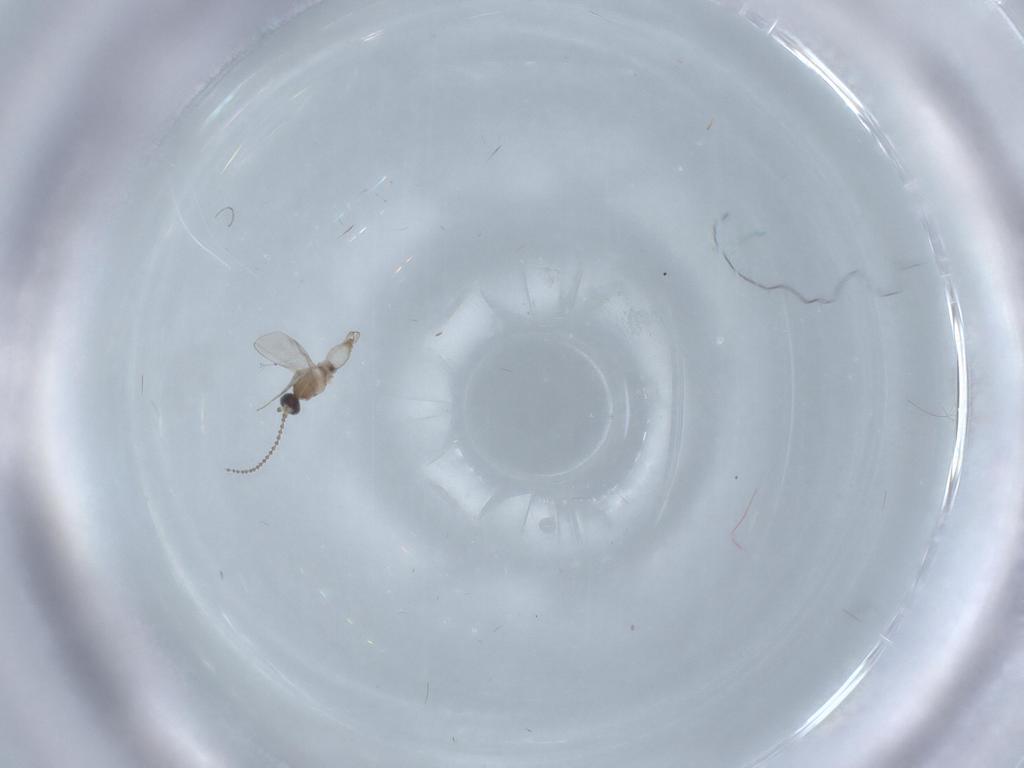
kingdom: Animalia
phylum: Arthropoda
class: Insecta
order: Diptera
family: Cecidomyiidae
